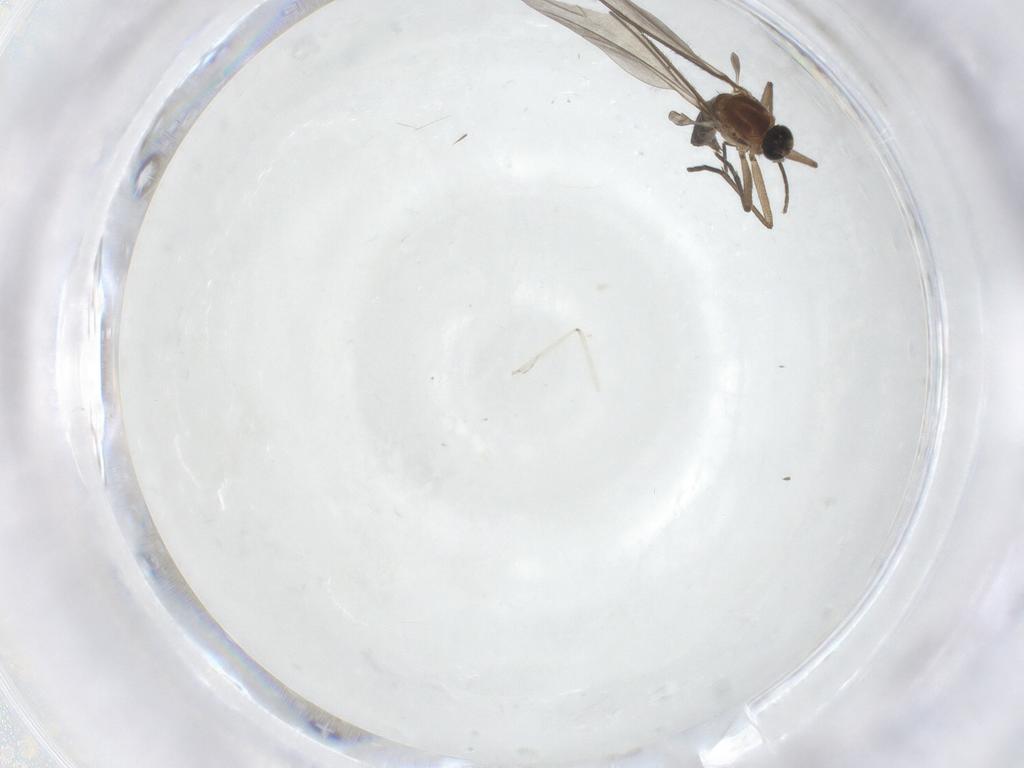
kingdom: Animalia
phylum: Arthropoda
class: Insecta
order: Diptera
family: Sciaridae
